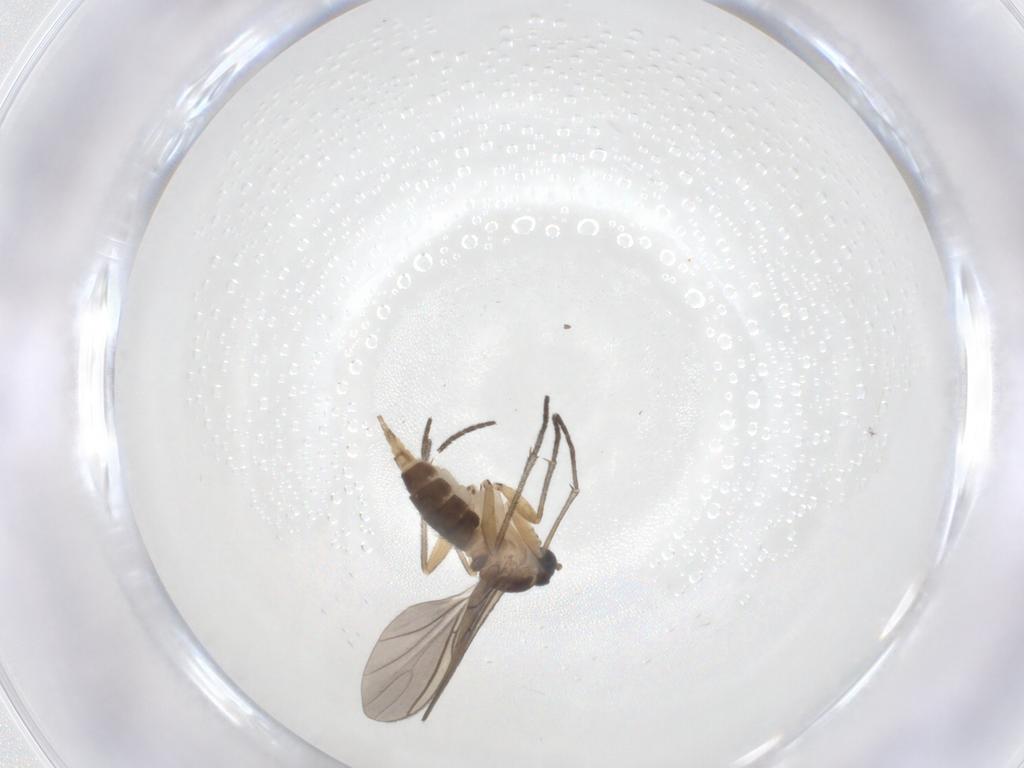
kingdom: Animalia
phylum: Arthropoda
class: Insecta
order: Diptera
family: Sciaridae
